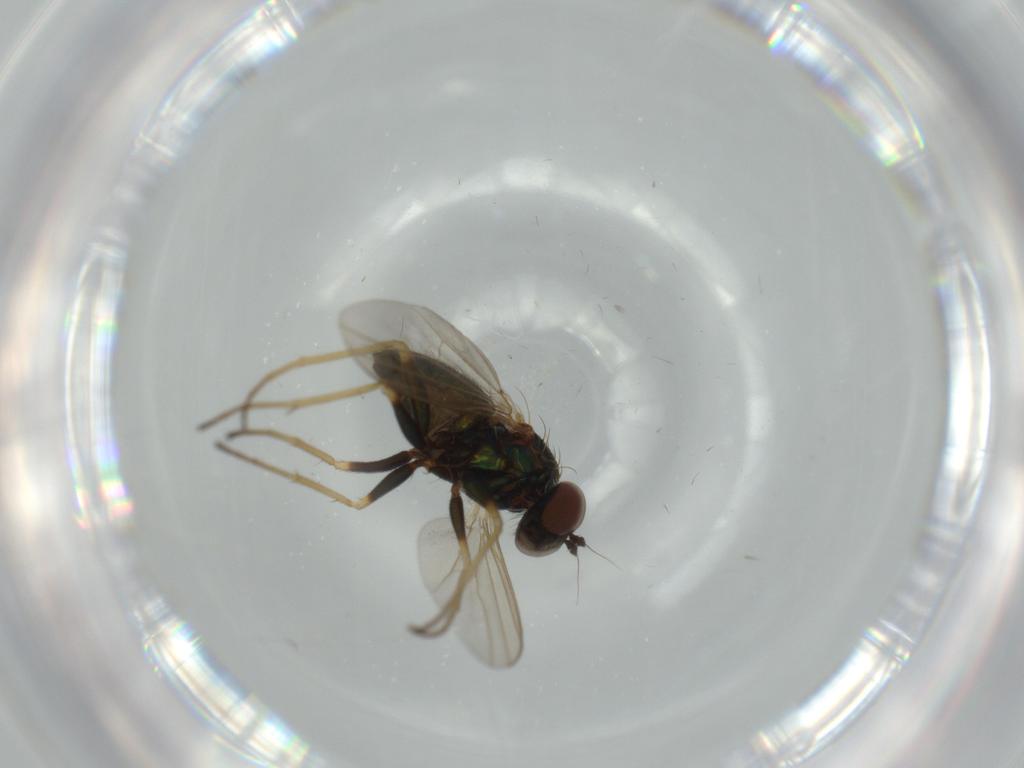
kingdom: Animalia
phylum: Arthropoda
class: Insecta
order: Diptera
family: Dolichopodidae
